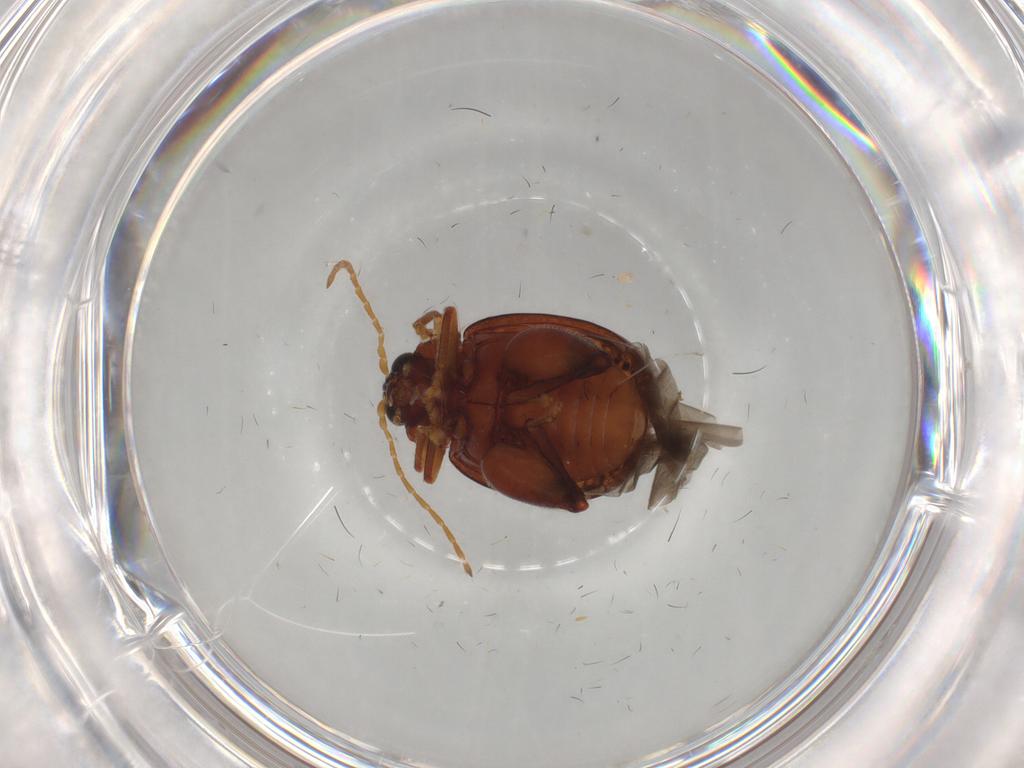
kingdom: Animalia
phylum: Arthropoda
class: Insecta
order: Coleoptera
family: Chrysomelidae
